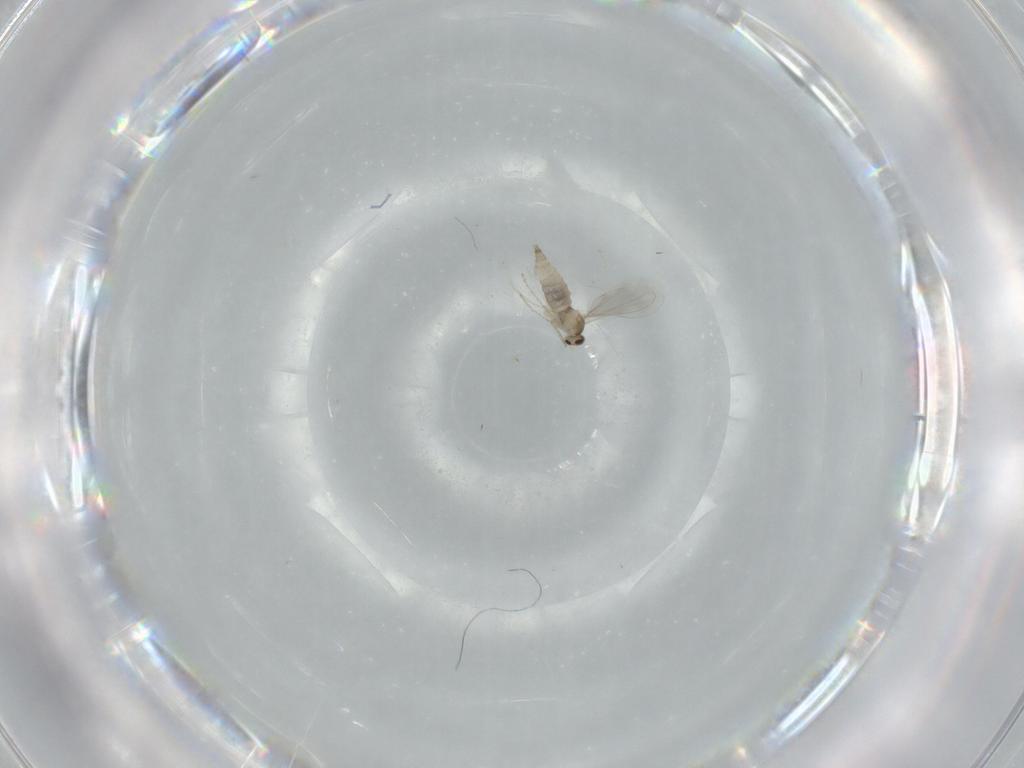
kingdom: Animalia
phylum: Arthropoda
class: Insecta
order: Diptera
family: Cecidomyiidae
